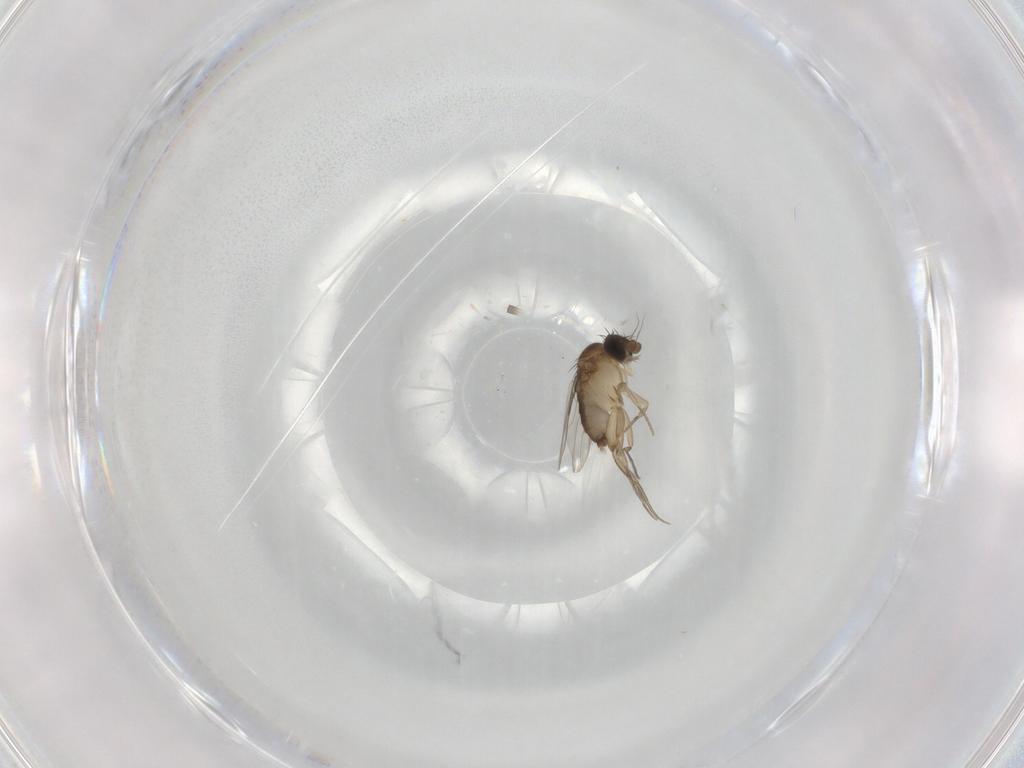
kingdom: Animalia
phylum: Arthropoda
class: Insecta
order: Diptera
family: Phoridae
